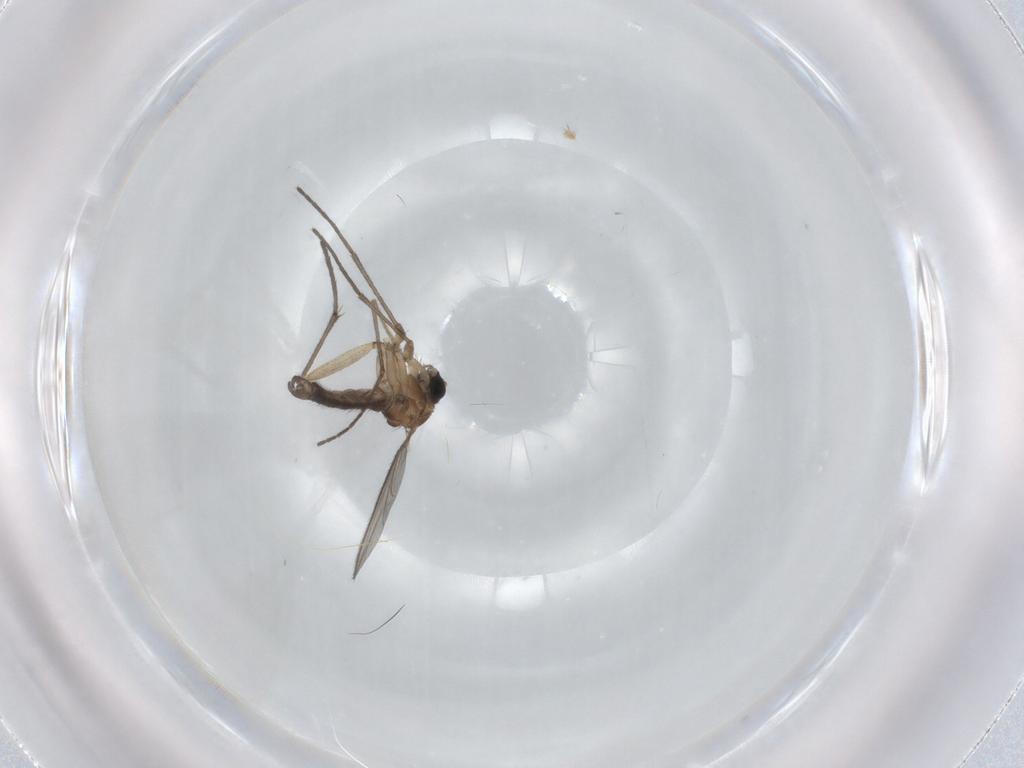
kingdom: Animalia
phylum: Arthropoda
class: Insecta
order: Diptera
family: Sciaridae
